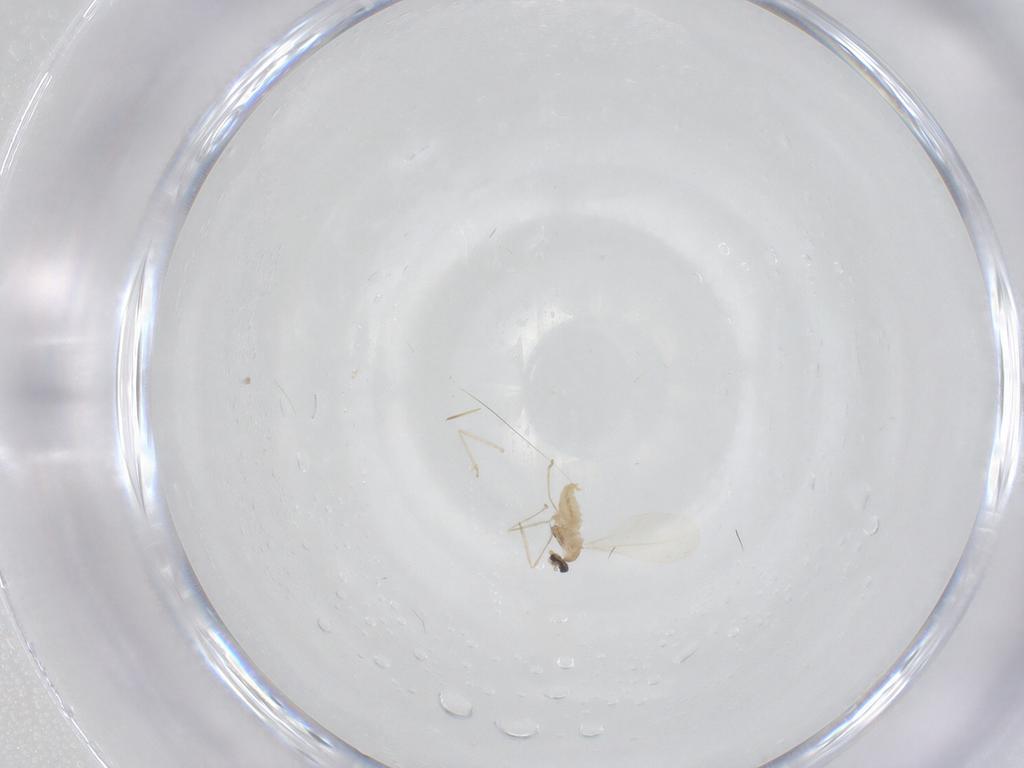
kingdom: Animalia
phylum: Arthropoda
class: Insecta
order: Diptera
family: Cecidomyiidae
